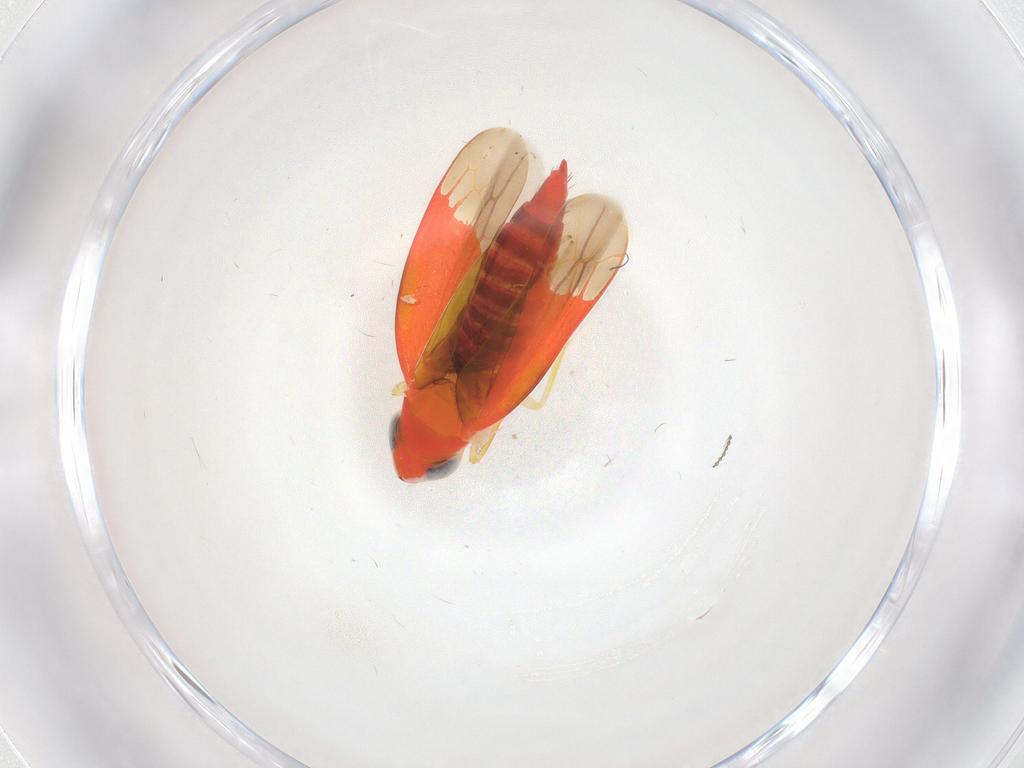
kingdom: Animalia
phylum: Arthropoda
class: Insecta
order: Hemiptera
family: Cicadellidae
